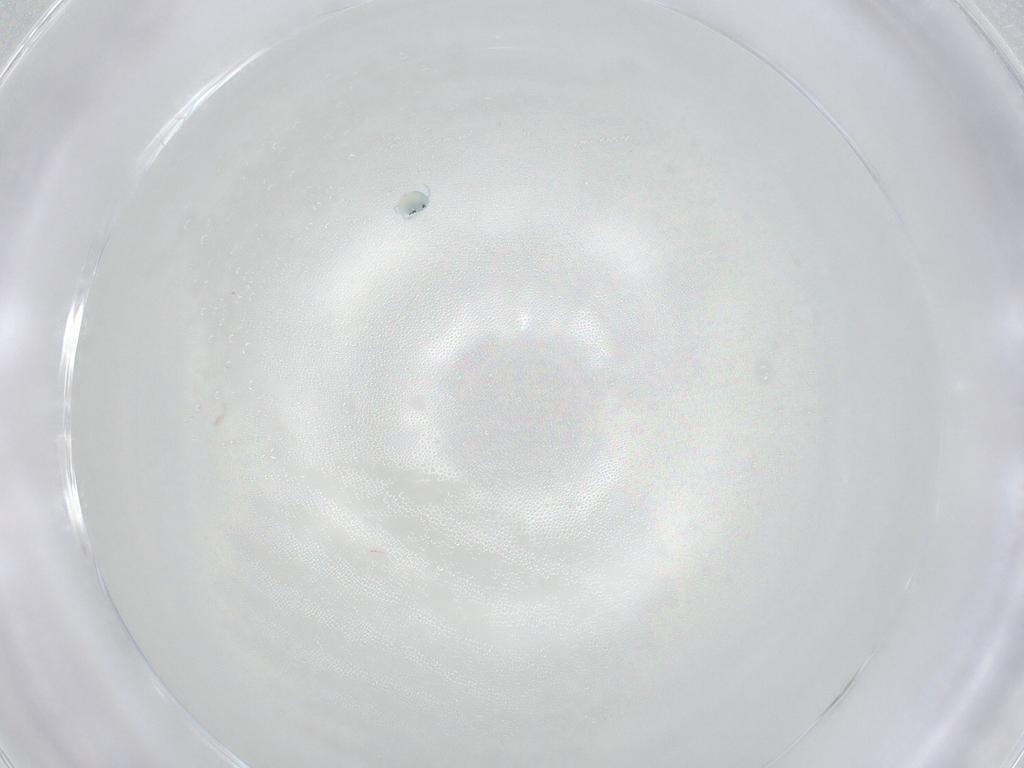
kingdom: Animalia
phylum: Arthropoda
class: Arachnida
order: Trombidiformes
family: Arrenuridae
